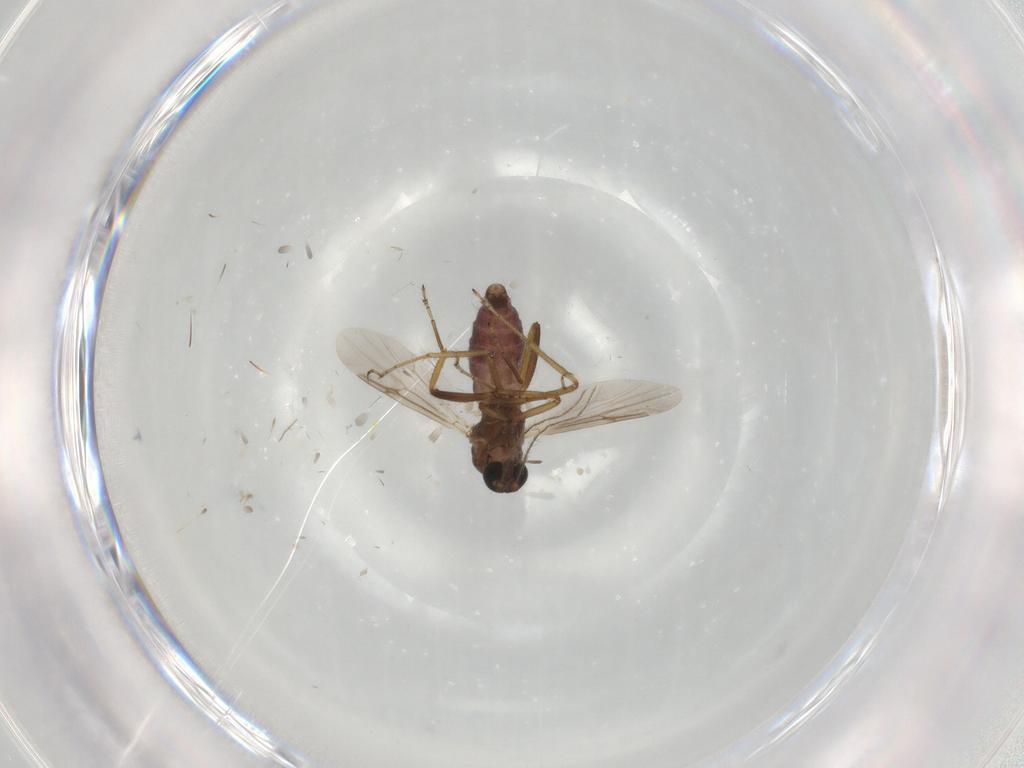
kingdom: Animalia
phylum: Arthropoda
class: Insecta
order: Diptera
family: Ceratopogonidae
